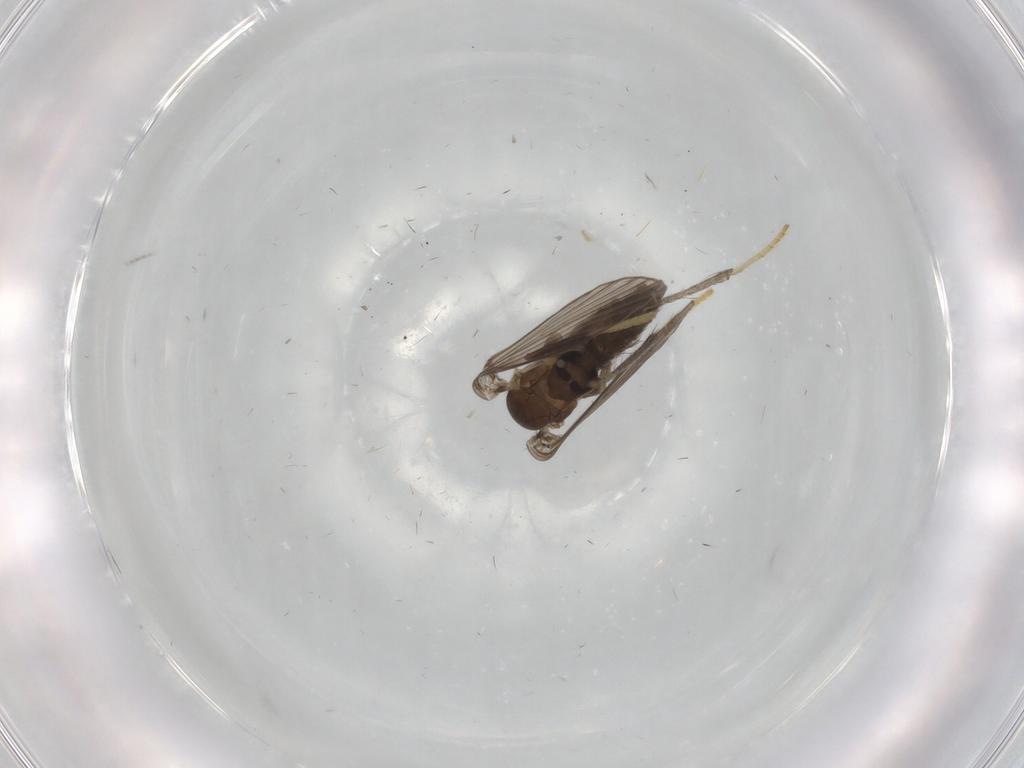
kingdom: Animalia
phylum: Arthropoda
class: Insecta
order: Diptera
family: Psychodidae
